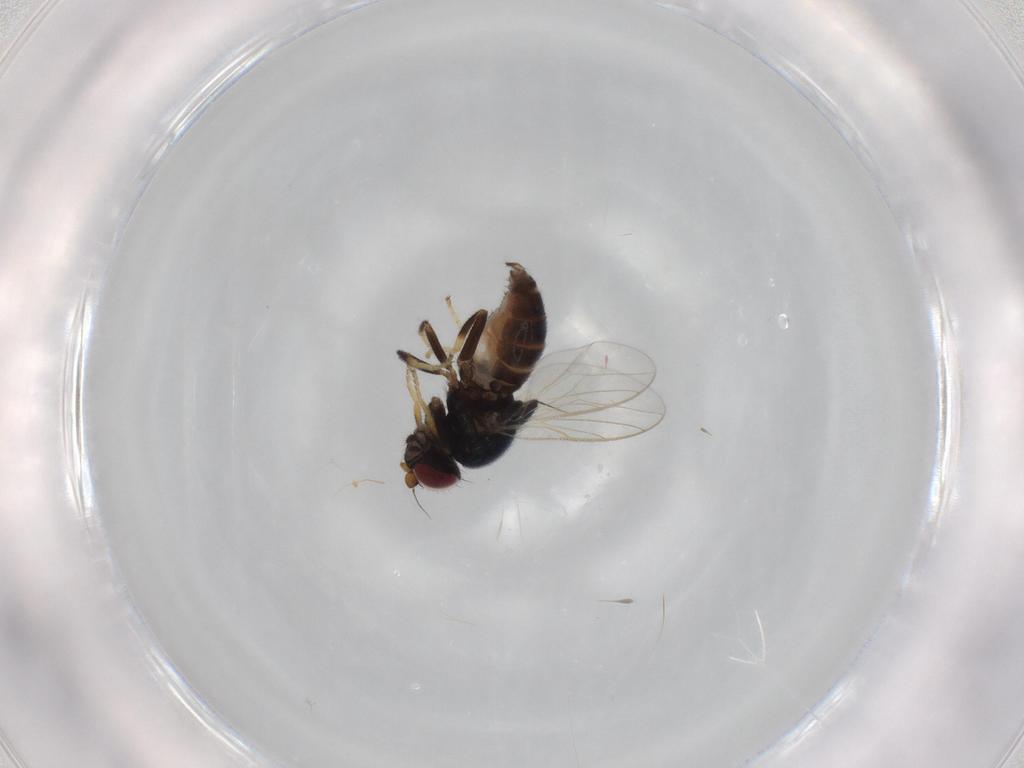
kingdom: Animalia
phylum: Arthropoda
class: Insecta
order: Diptera
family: Chloropidae
